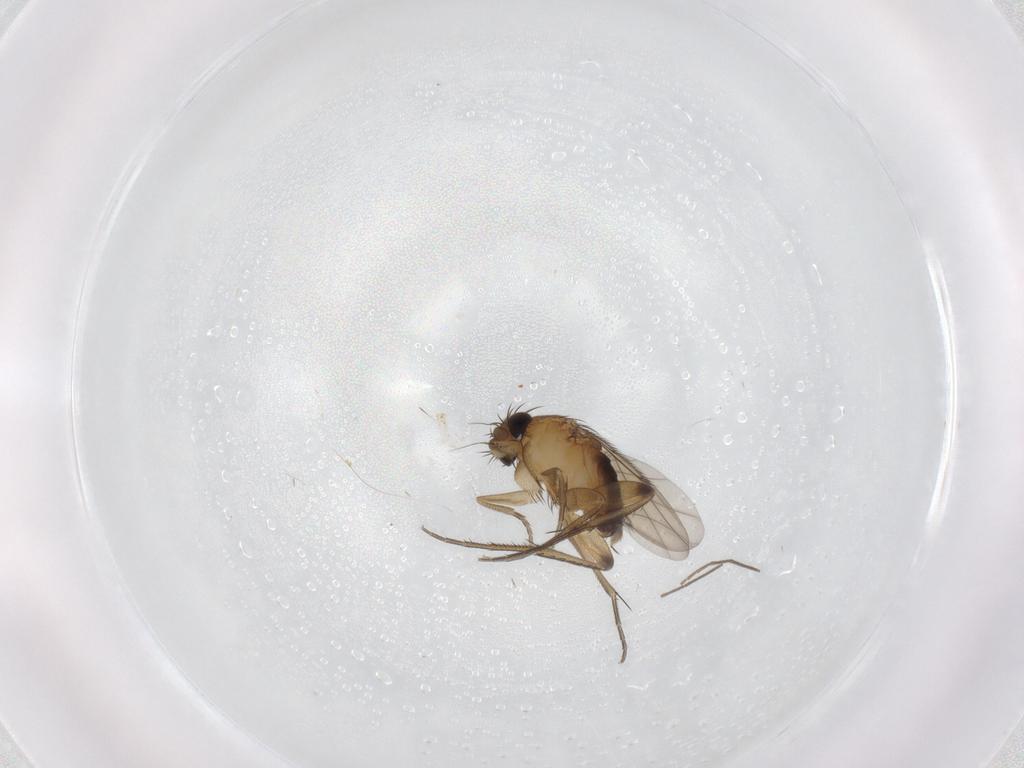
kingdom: Animalia
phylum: Arthropoda
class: Insecta
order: Diptera
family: Phoridae
